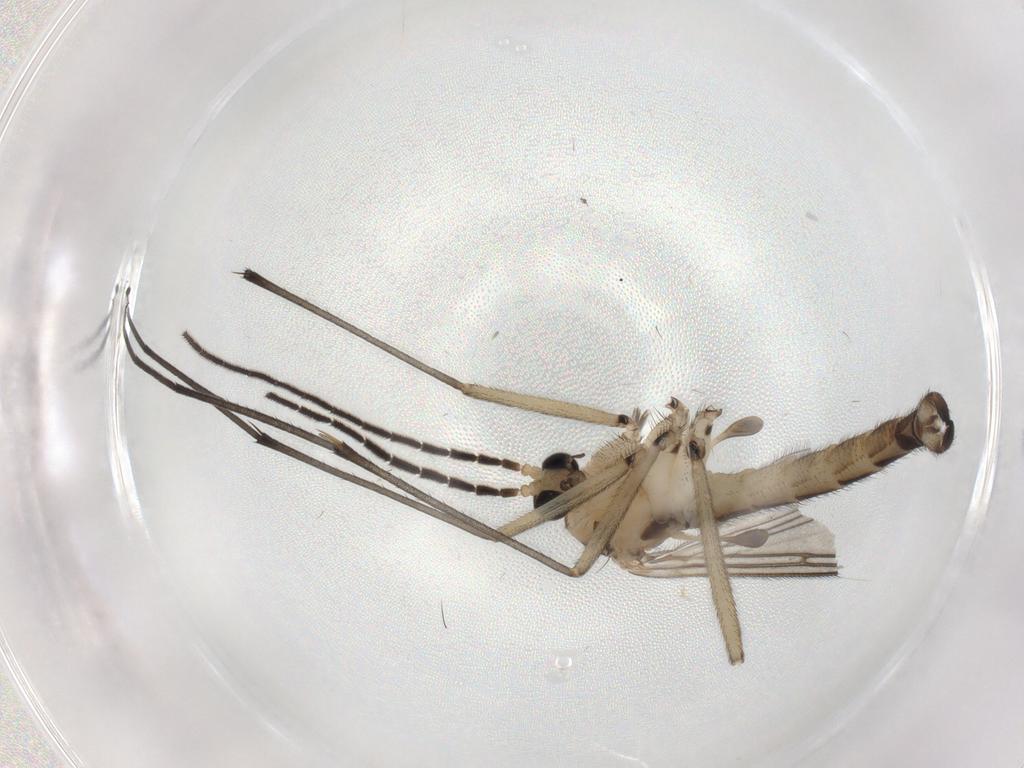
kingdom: Animalia
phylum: Arthropoda
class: Insecta
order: Diptera
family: Sciaridae
